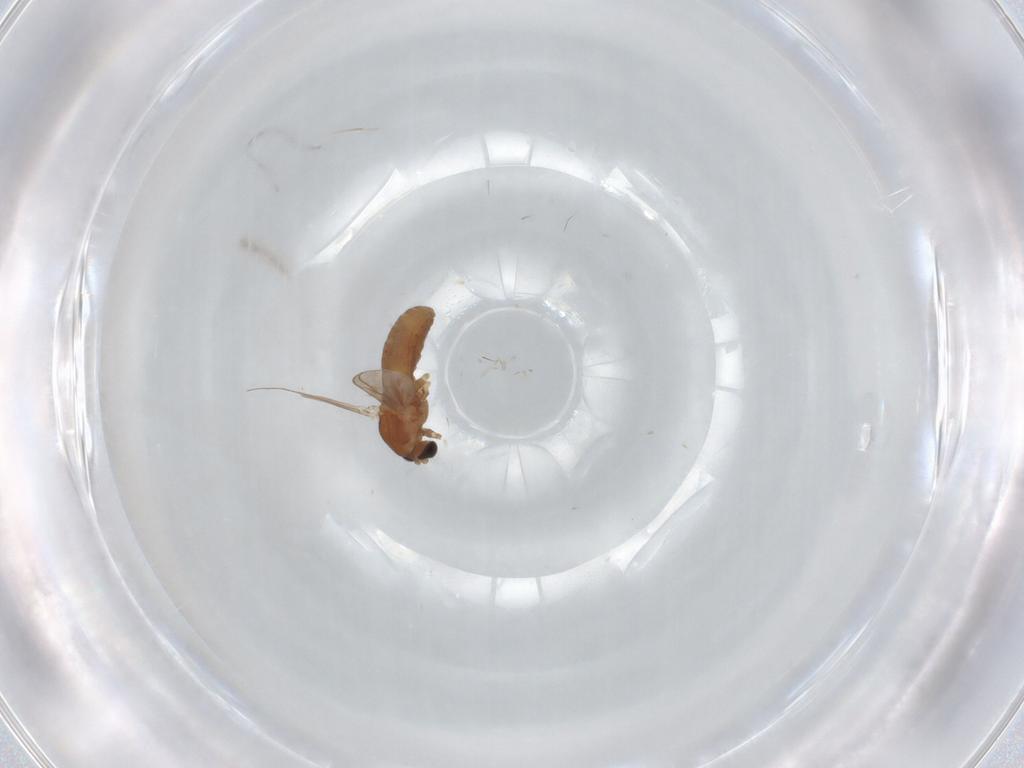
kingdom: Animalia
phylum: Arthropoda
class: Insecta
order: Diptera
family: Chironomidae
